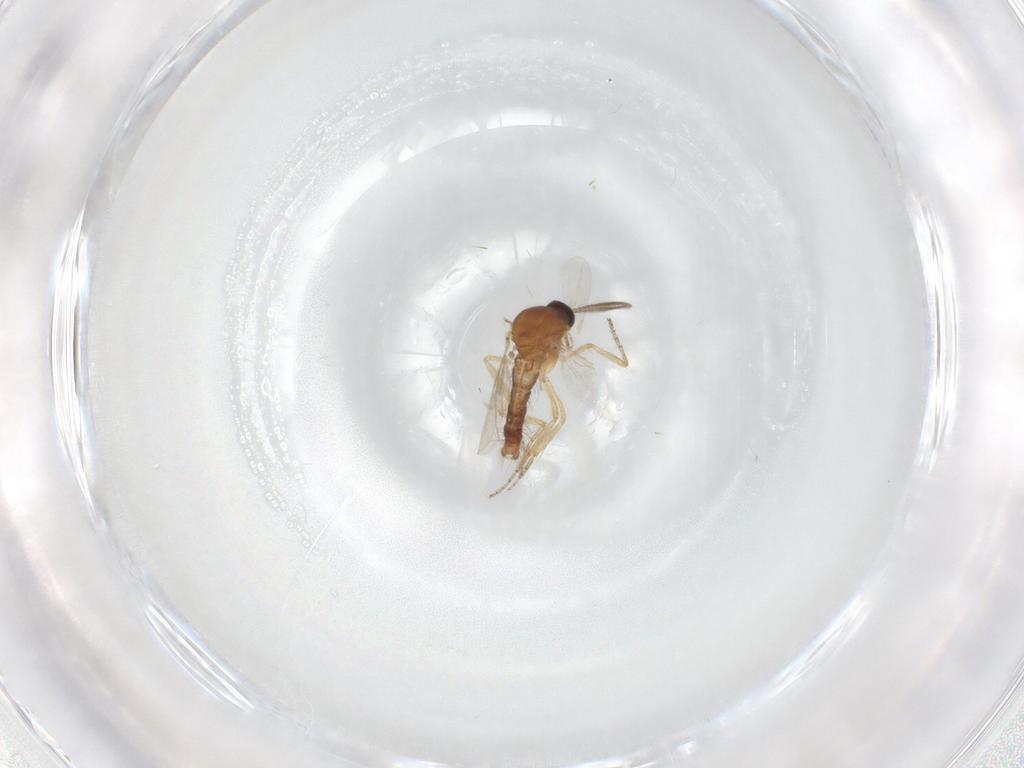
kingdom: Animalia
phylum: Arthropoda
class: Insecta
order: Diptera
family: Ceratopogonidae
